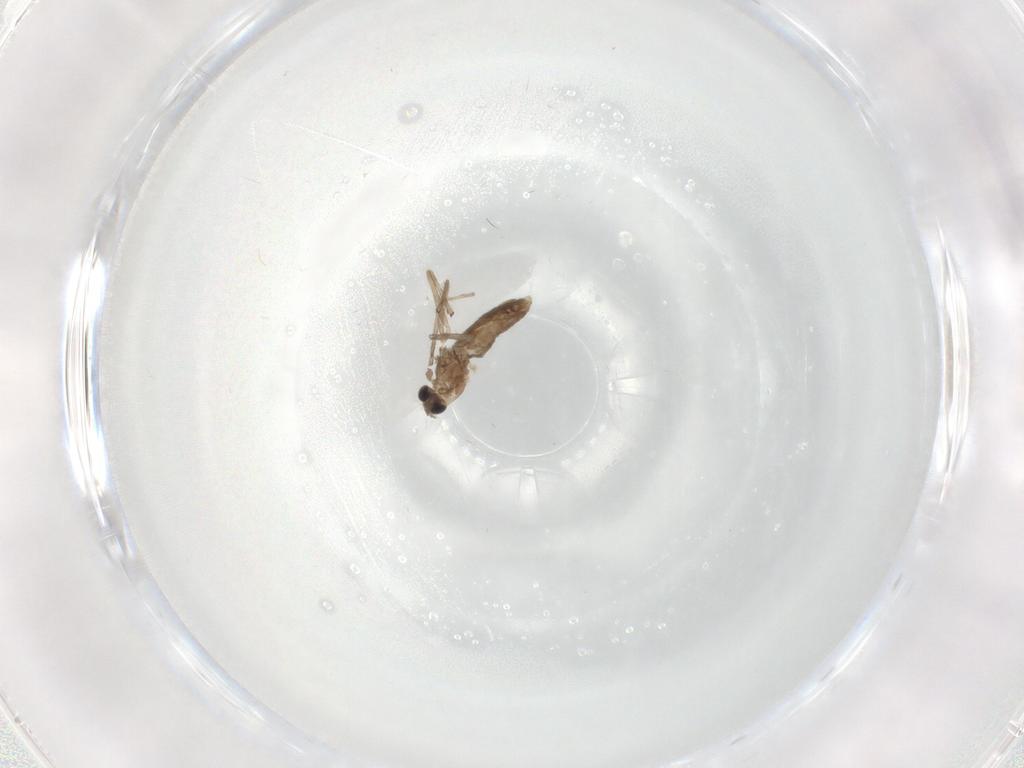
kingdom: Animalia
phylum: Arthropoda
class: Insecta
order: Diptera
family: Chironomidae
